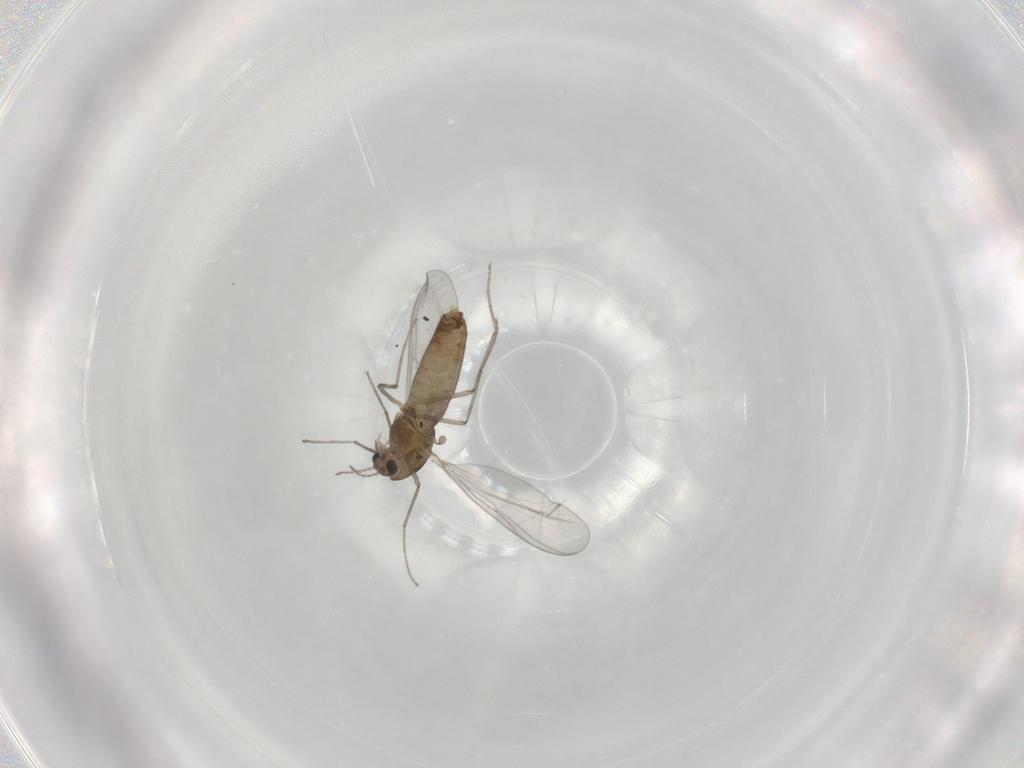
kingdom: Animalia
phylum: Arthropoda
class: Insecta
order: Diptera
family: Chironomidae
